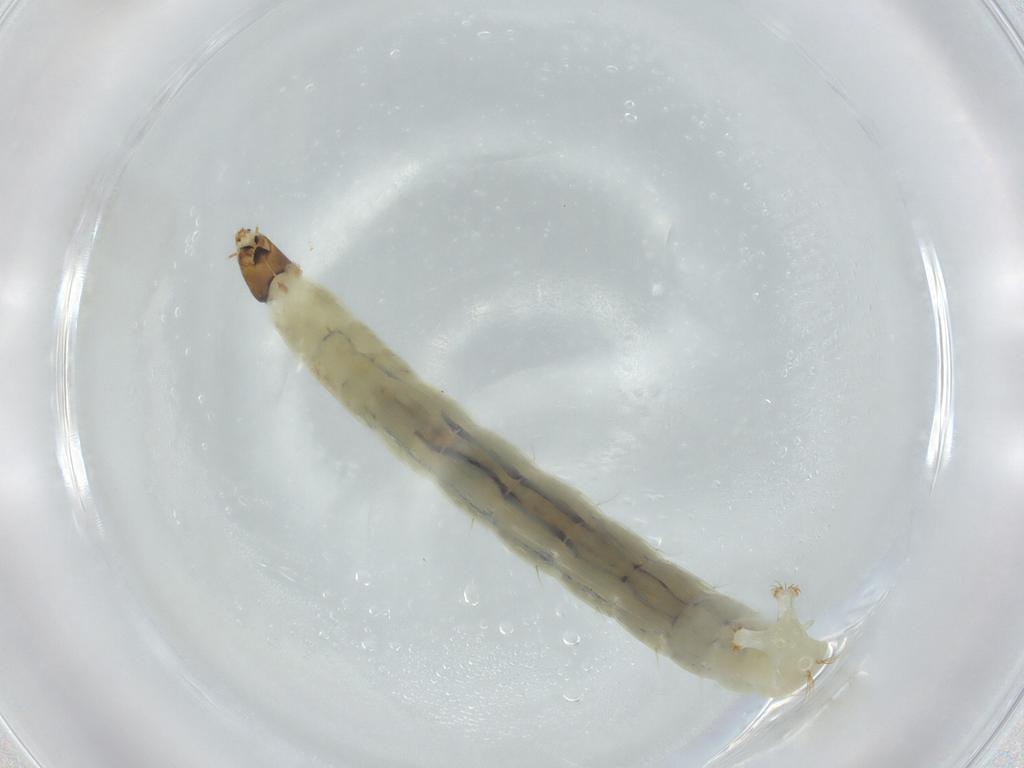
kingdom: Animalia
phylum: Arthropoda
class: Insecta
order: Diptera
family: Chironomidae
